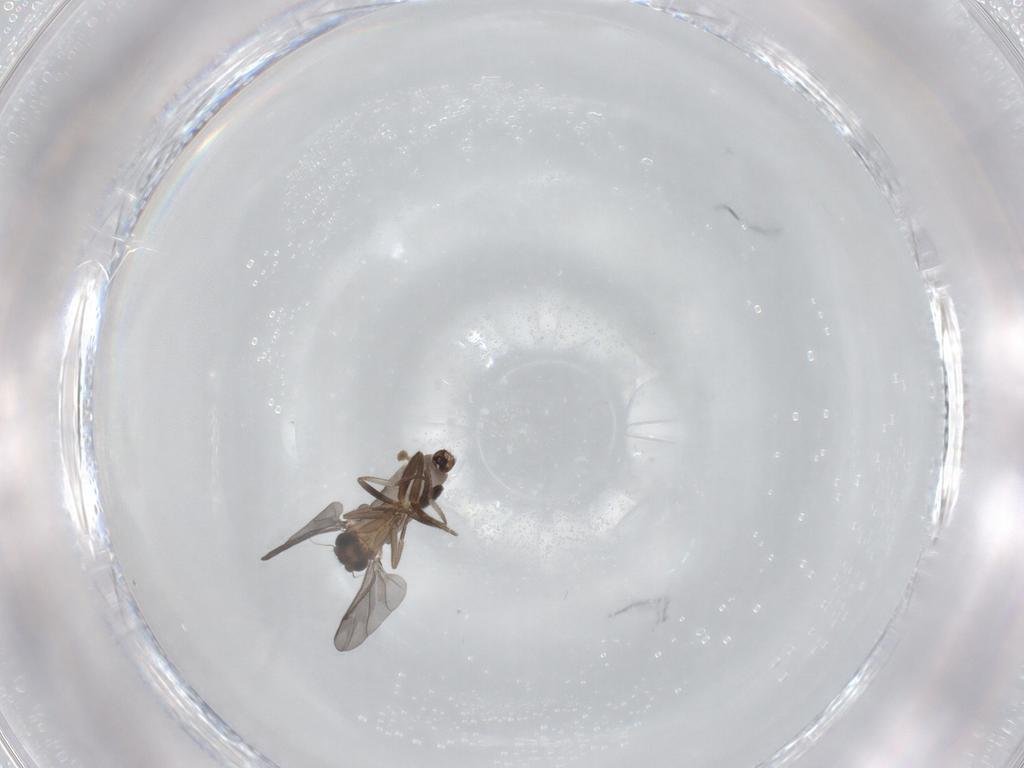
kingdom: Animalia
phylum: Arthropoda
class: Insecta
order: Diptera
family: Phoridae
